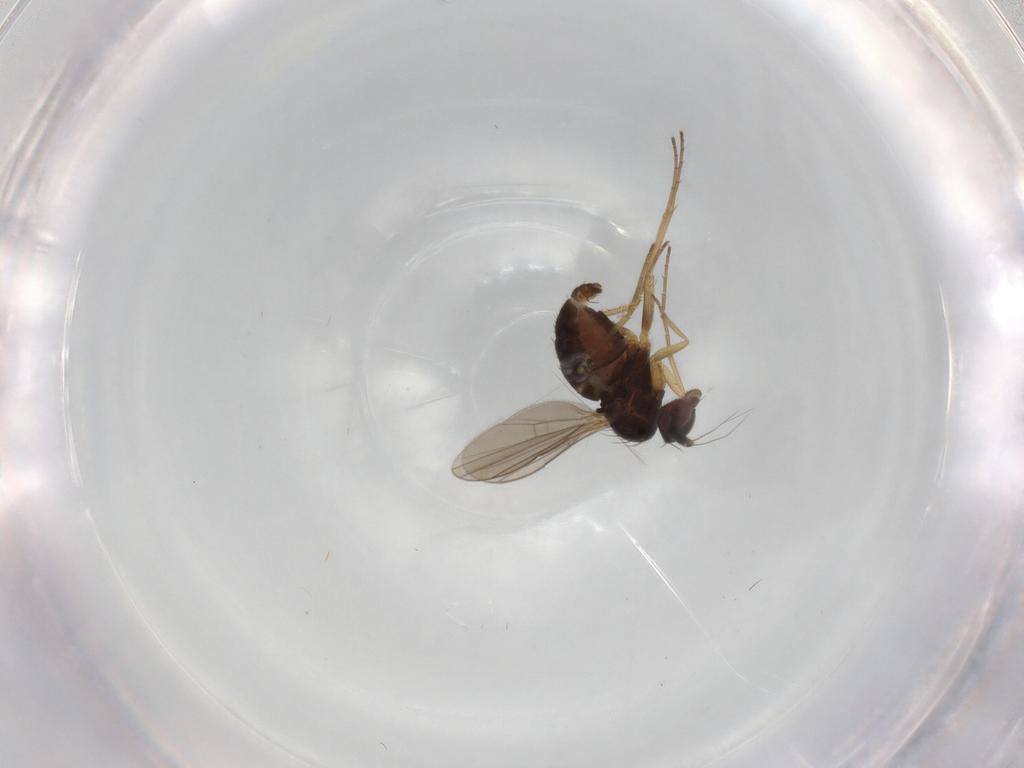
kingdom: Animalia
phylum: Arthropoda
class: Insecta
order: Diptera
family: Dolichopodidae
